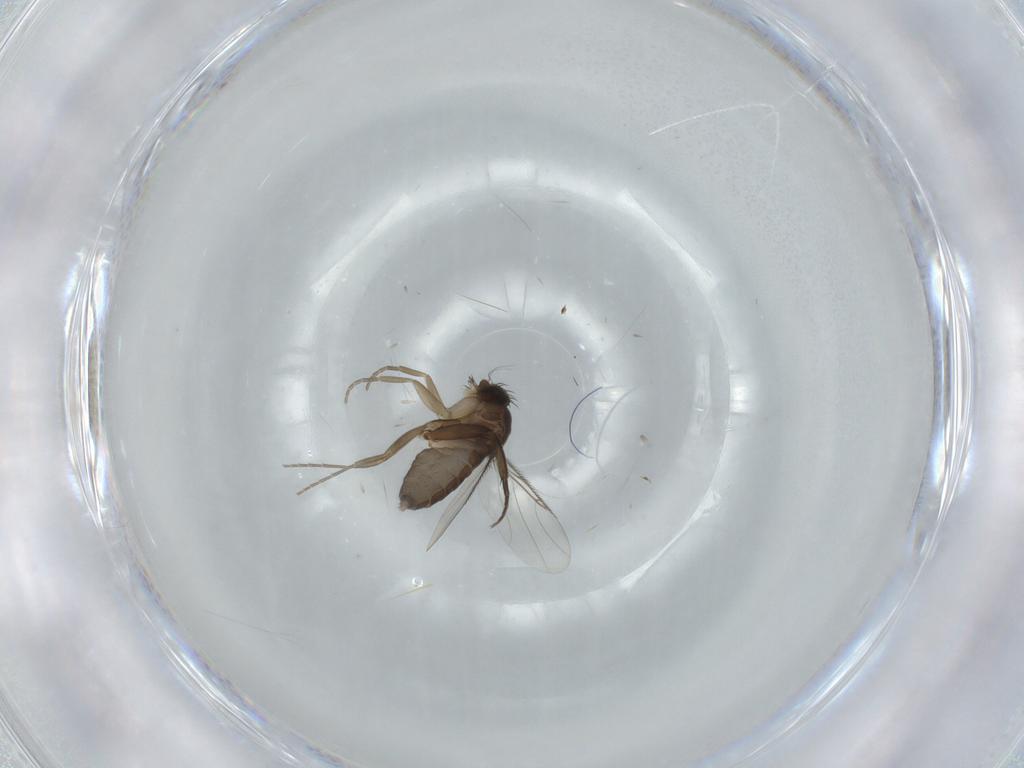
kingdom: Animalia
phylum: Arthropoda
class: Insecta
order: Diptera
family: Phoridae
